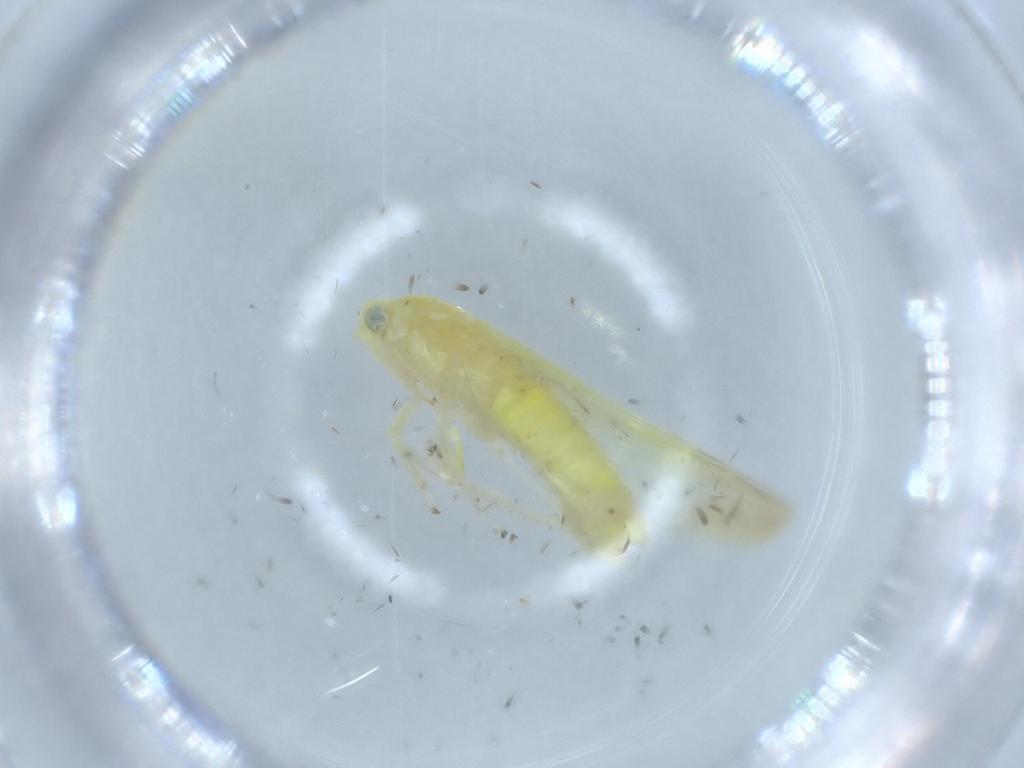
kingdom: Animalia
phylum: Arthropoda
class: Insecta
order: Hemiptera
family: Cicadellidae
